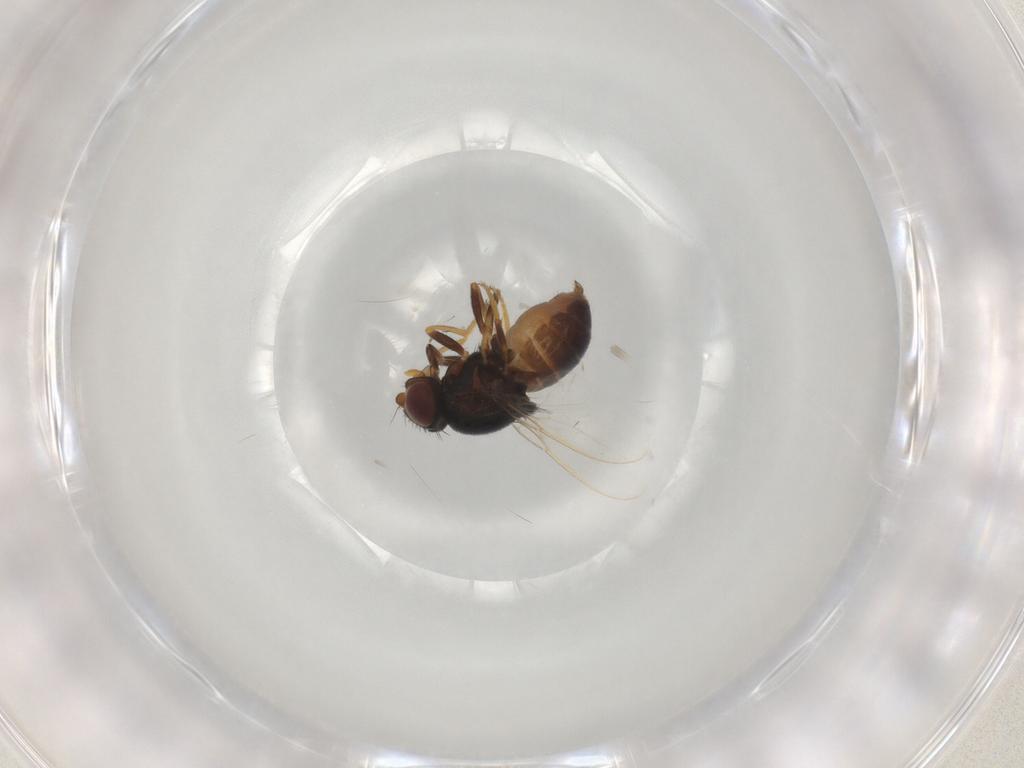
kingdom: Animalia
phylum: Arthropoda
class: Insecta
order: Diptera
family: Chloropidae
